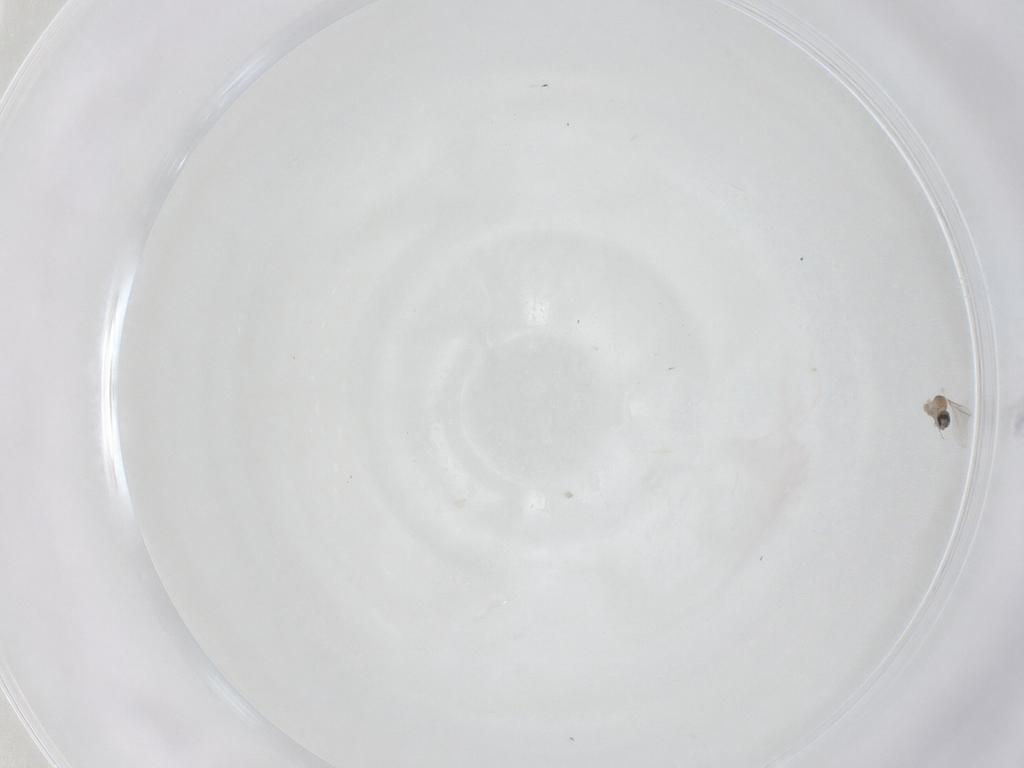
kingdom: Animalia
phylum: Arthropoda
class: Insecta
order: Diptera
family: Cecidomyiidae
